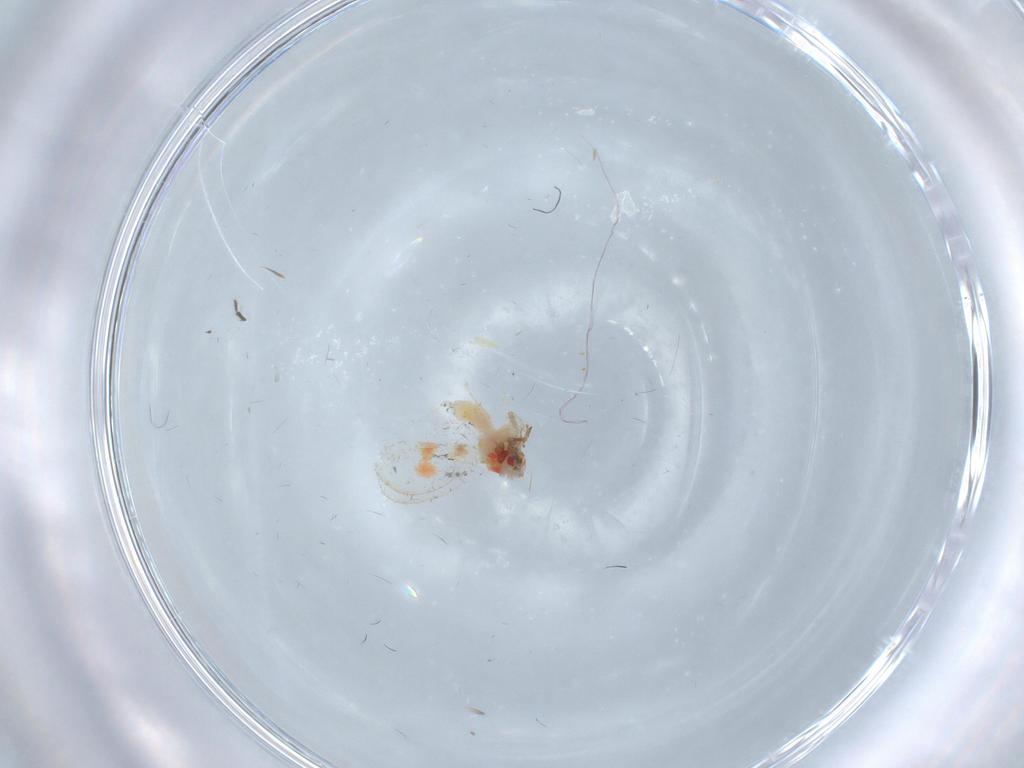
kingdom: Animalia
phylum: Arthropoda
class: Insecta
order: Hemiptera
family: Aleyrodidae
